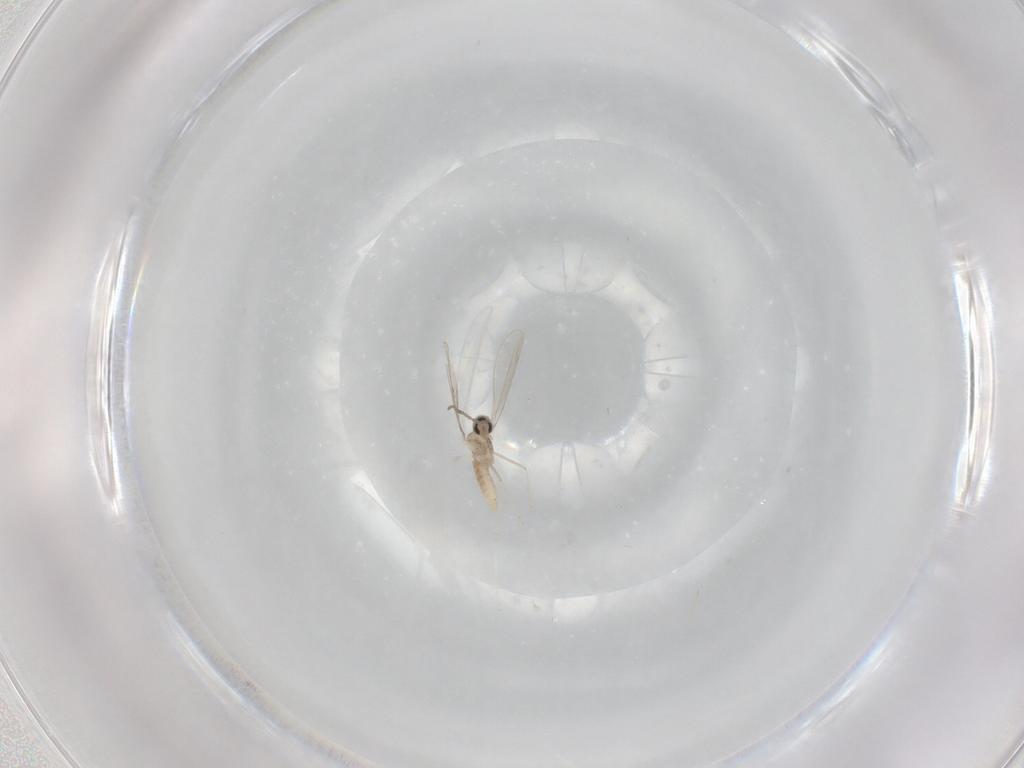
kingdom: Animalia
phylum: Arthropoda
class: Insecta
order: Diptera
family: Cecidomyiidae
